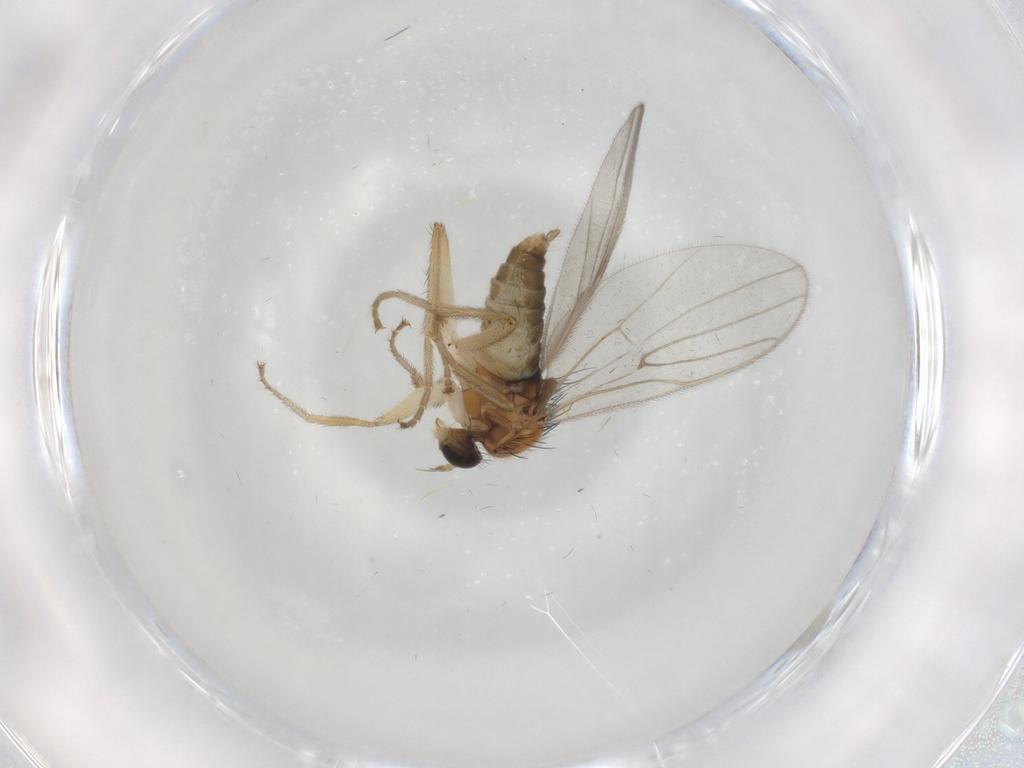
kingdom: Animalia
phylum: Arthropoda
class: Insecta
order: Diptera
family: Chironomidae
